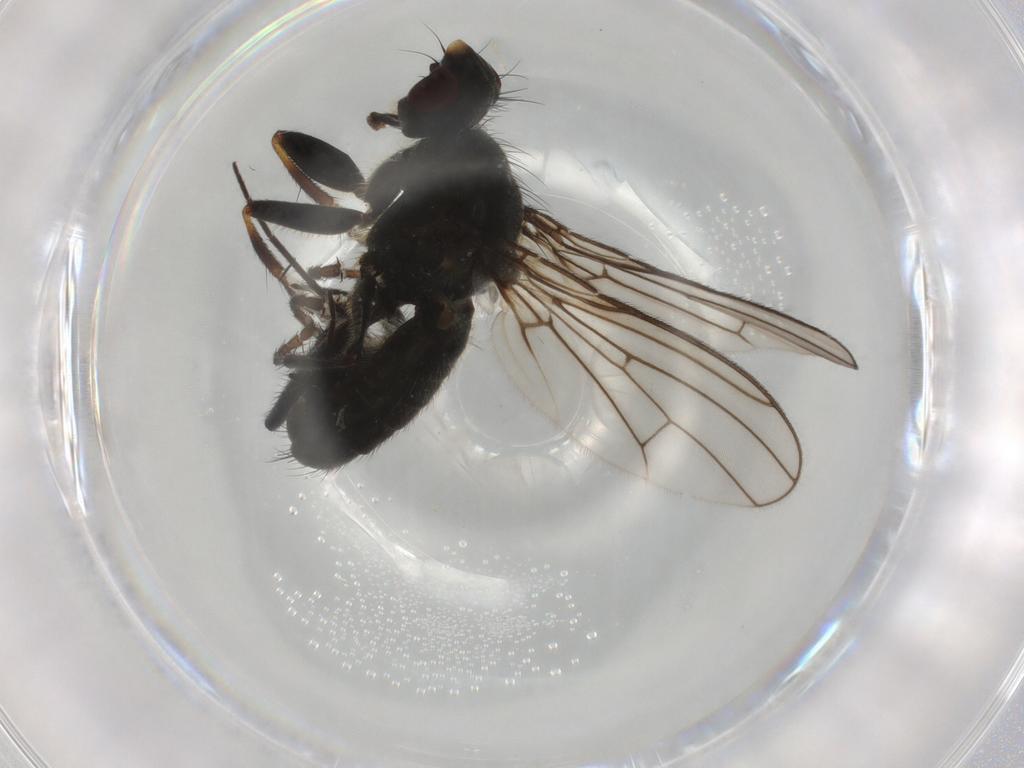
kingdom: Animalia
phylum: Arthropoda
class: Insecta
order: Diptera
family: Scathophagidae
